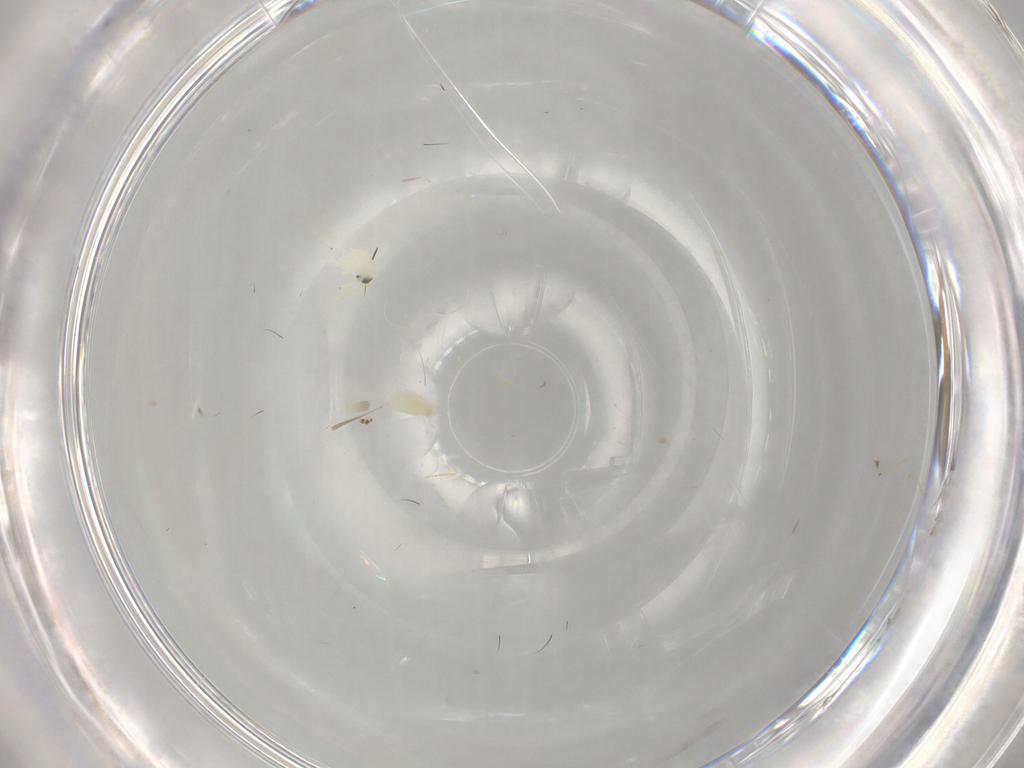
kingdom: Animalia
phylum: Arthropoda
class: Insecta
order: Hemiptera
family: Aleyrodidae
